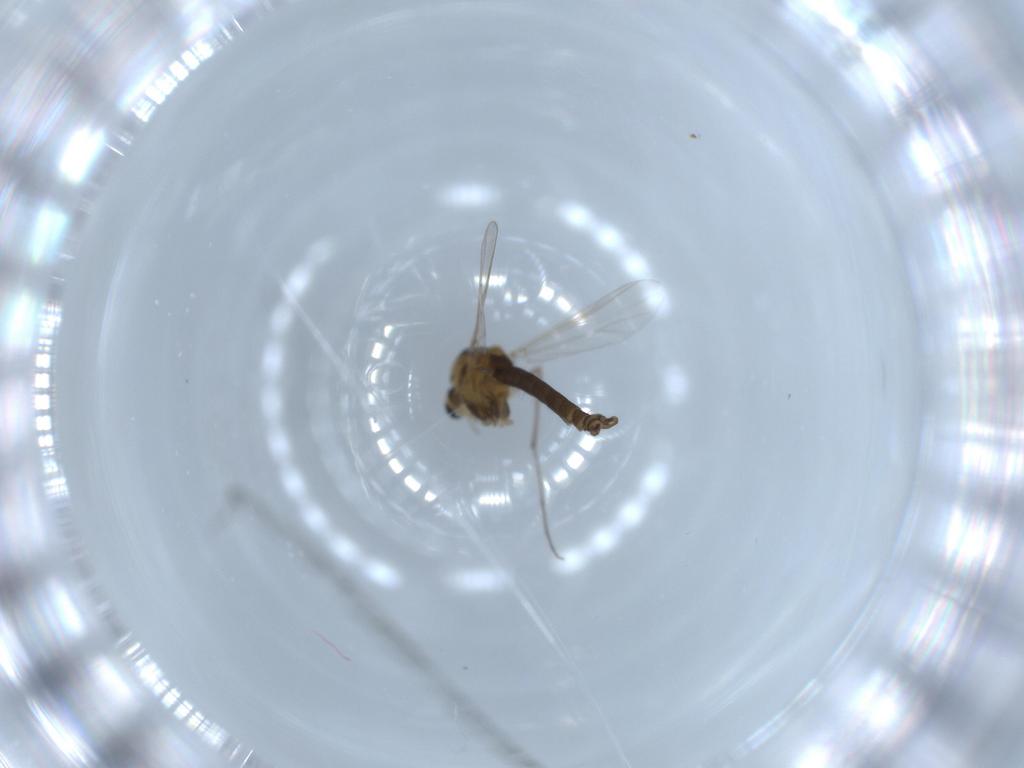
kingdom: Animalia
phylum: Arthropoda
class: Insecta
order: Diptera
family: Chironomidae
